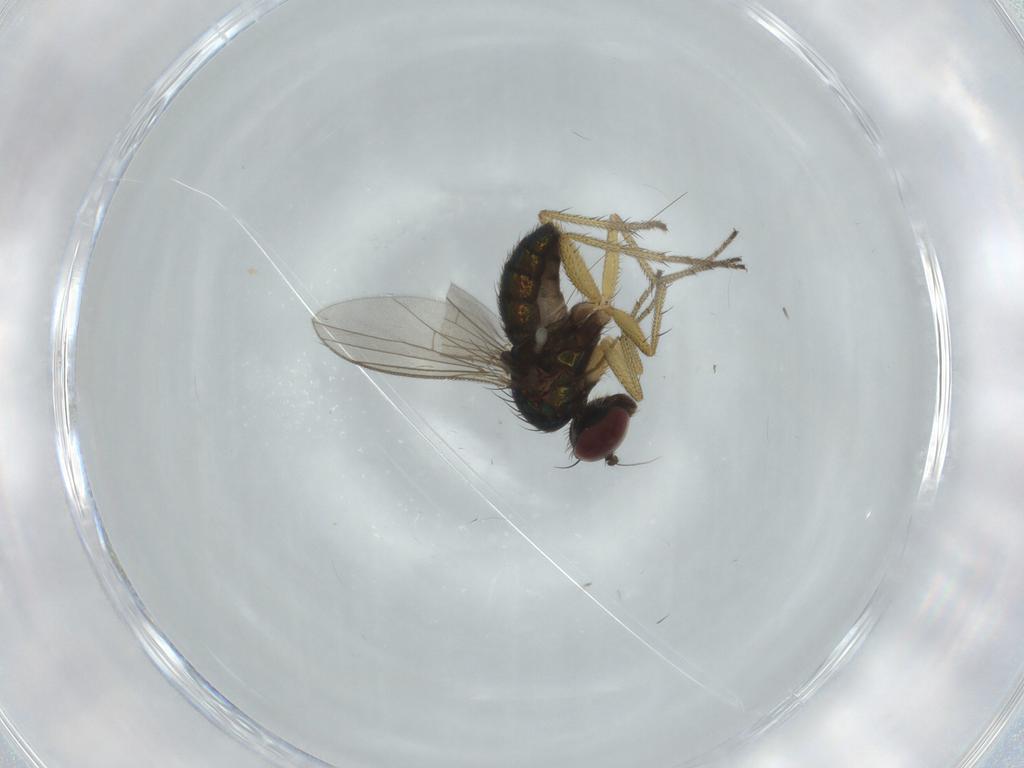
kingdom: Animalia
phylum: Arthropoda
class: Insecta
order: Diptera
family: Dolichopodidae
